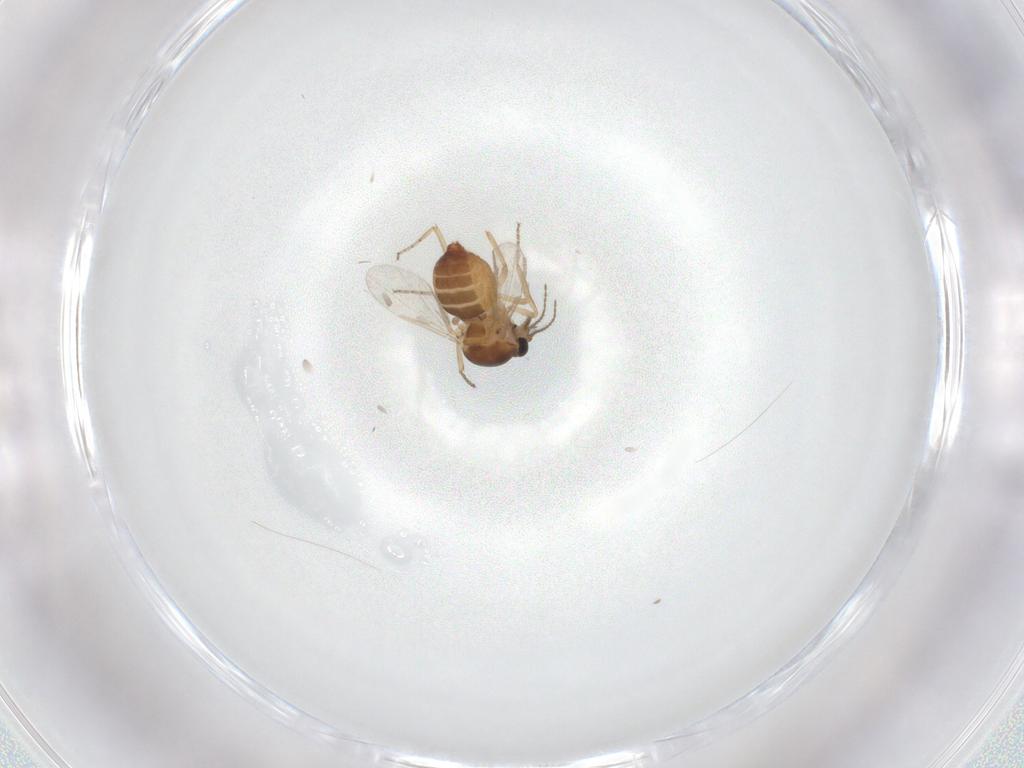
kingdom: Animalia
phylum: Arthropoda
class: Insecta
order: Diptera
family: Ceratopogonidae
